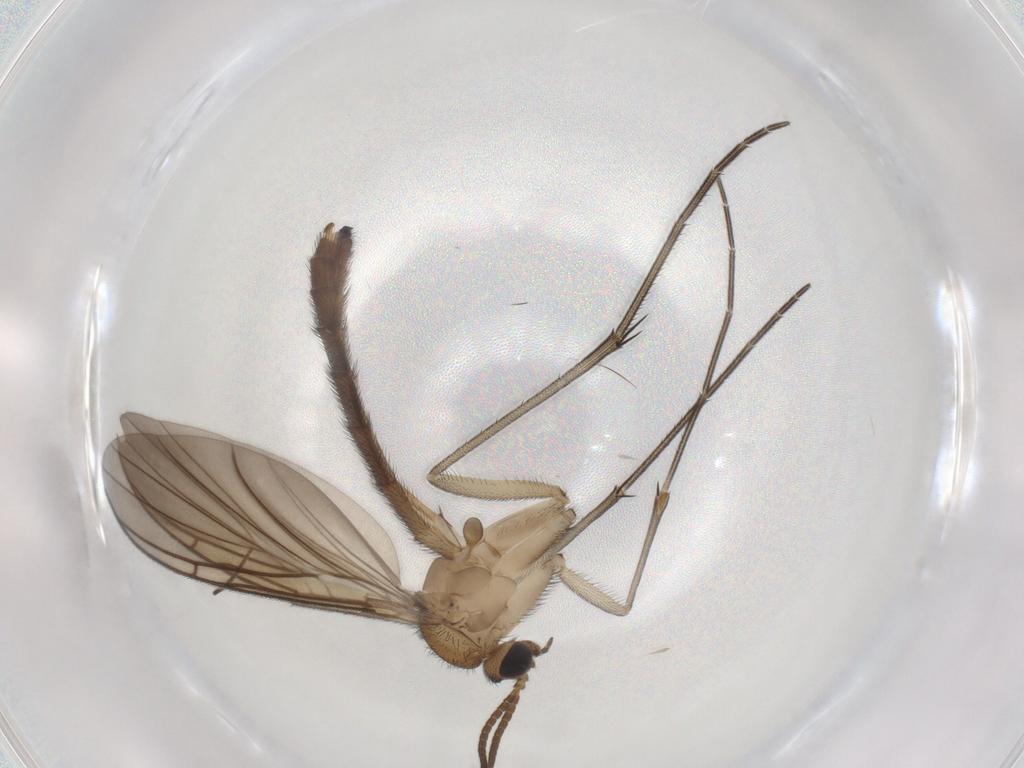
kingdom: Animalia
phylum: Arthropoda
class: Insecta
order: Diptera
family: Keroplatidae
